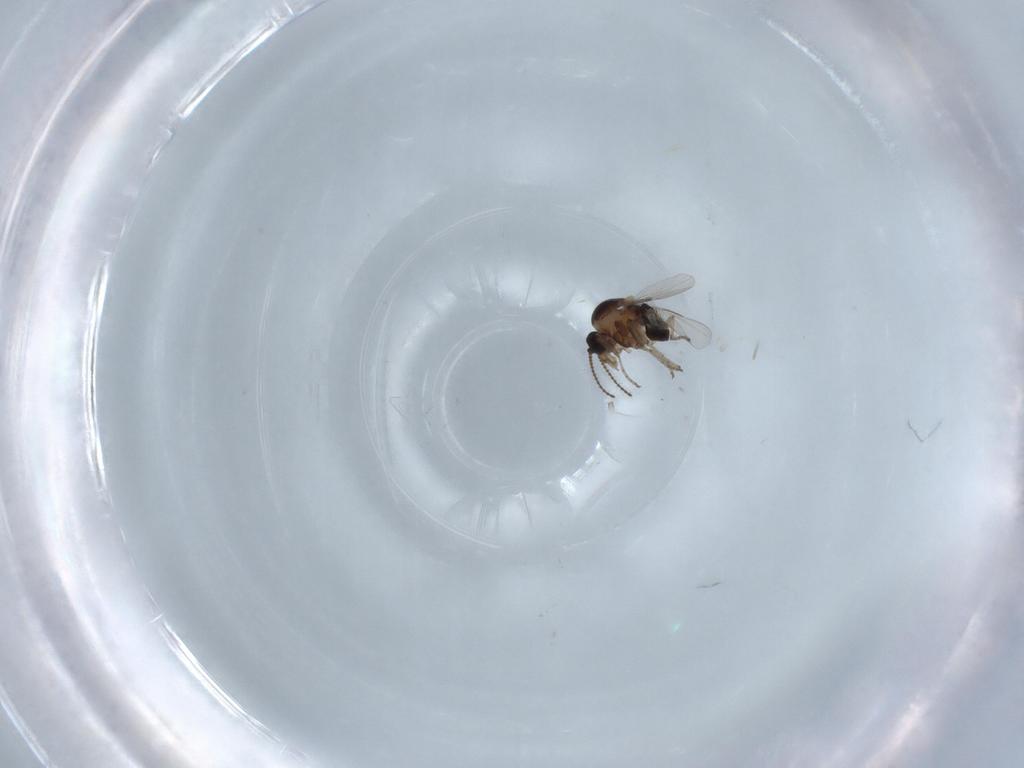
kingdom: Animalia
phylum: Arthropoda
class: Insecta
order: Diptera
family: Ceratopogonidae
